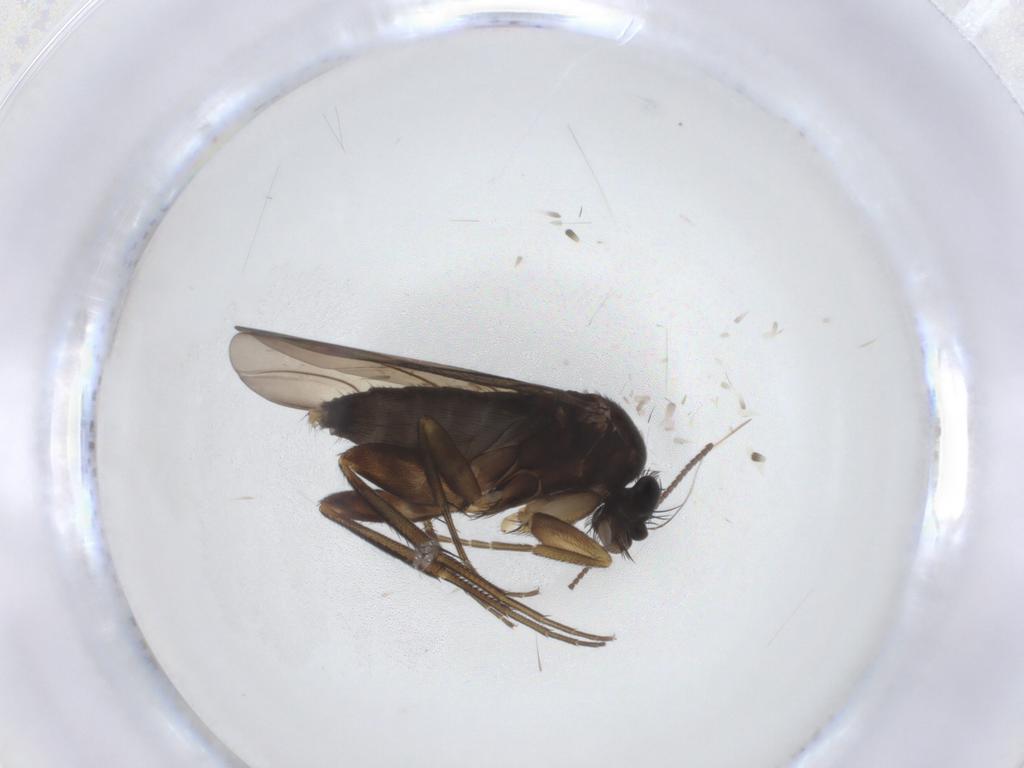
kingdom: Animalia
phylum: Arthropoda
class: Insecta
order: Diptera
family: Phoridae
